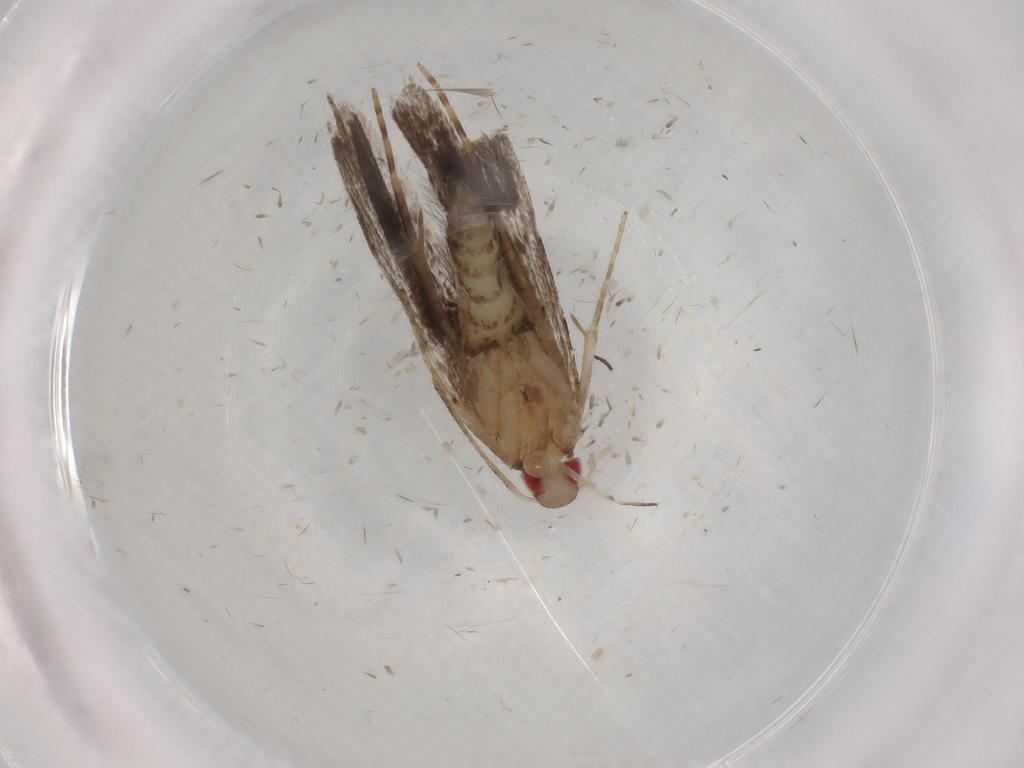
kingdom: Animalia
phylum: Arthropoda
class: Insecta
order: Lepidoptera
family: Gelechiidae
